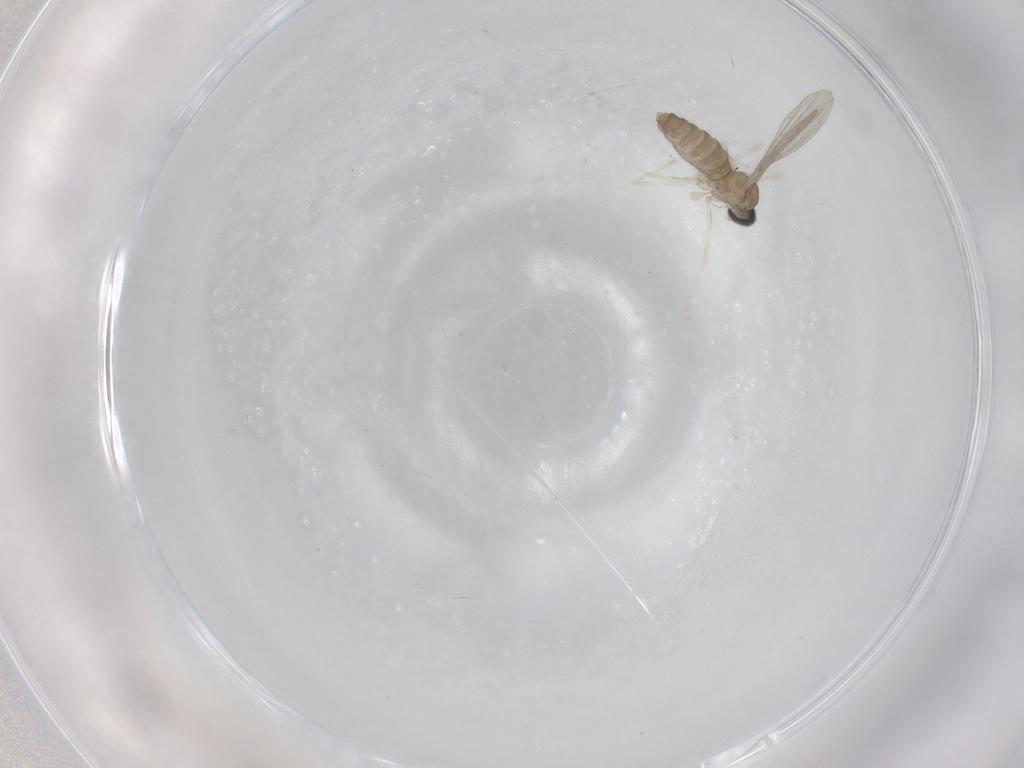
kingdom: Animalia
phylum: Arthropoda
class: Insecta
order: Diptera
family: Cecidomyiidae
